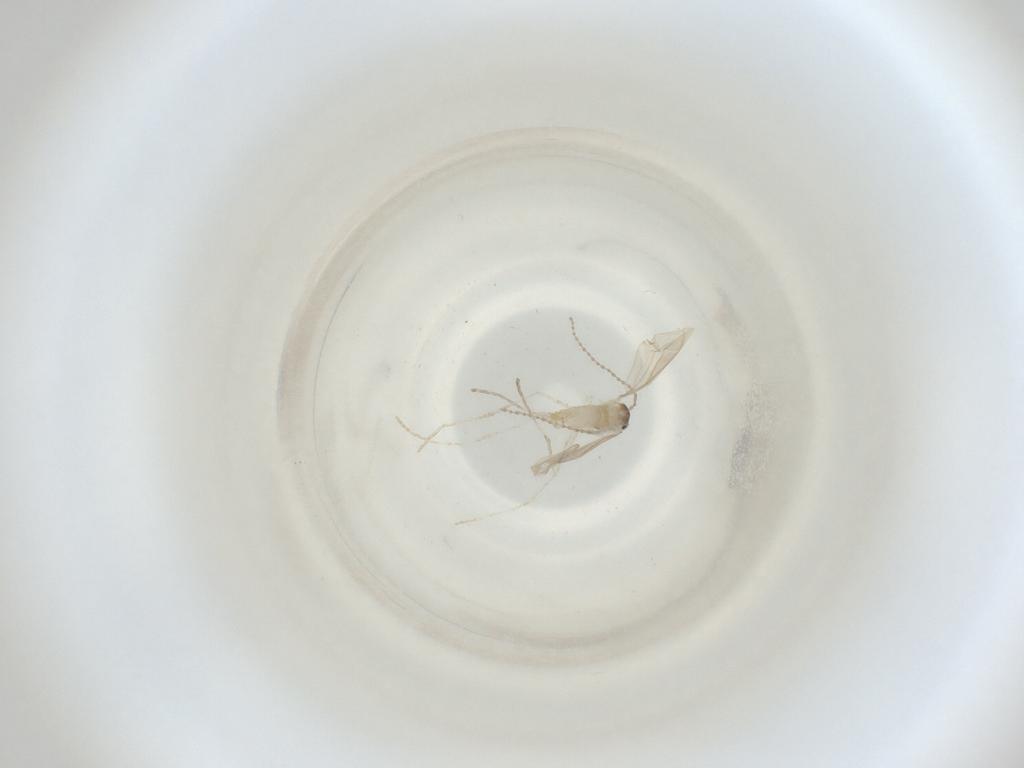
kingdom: Animalia
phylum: Arthropoda
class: Insecta
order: Diptera
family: Cecidomyiidae
